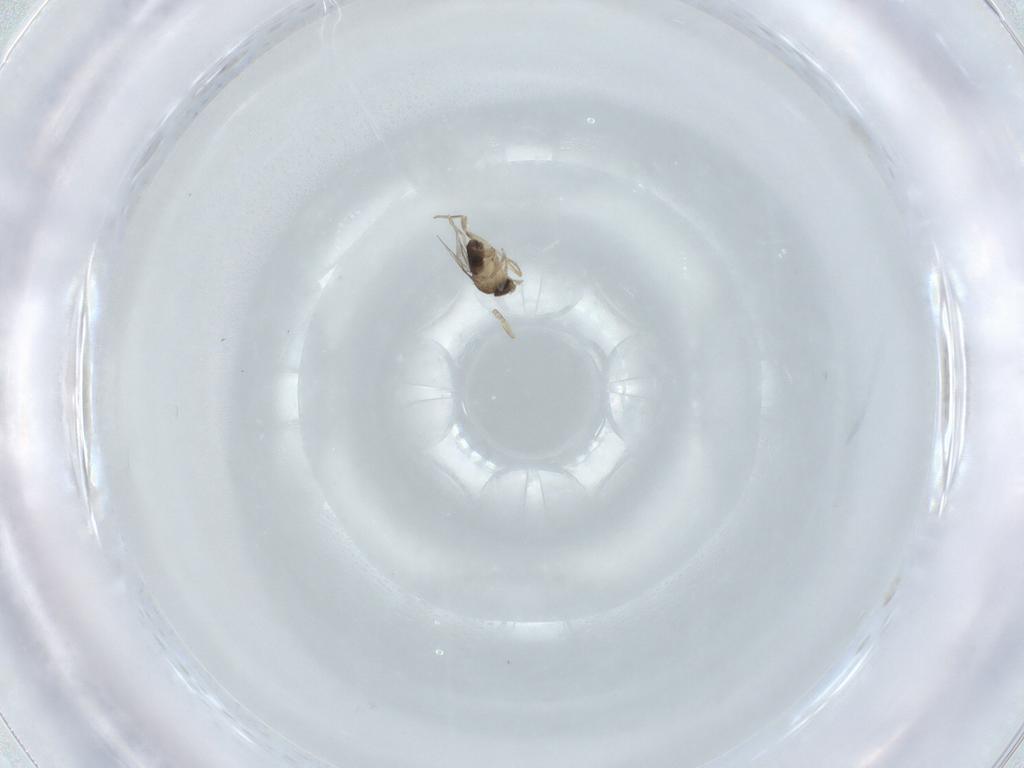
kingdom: Animalia
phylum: Arthropoda
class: Insecta
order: Diptera
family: Phoridae
